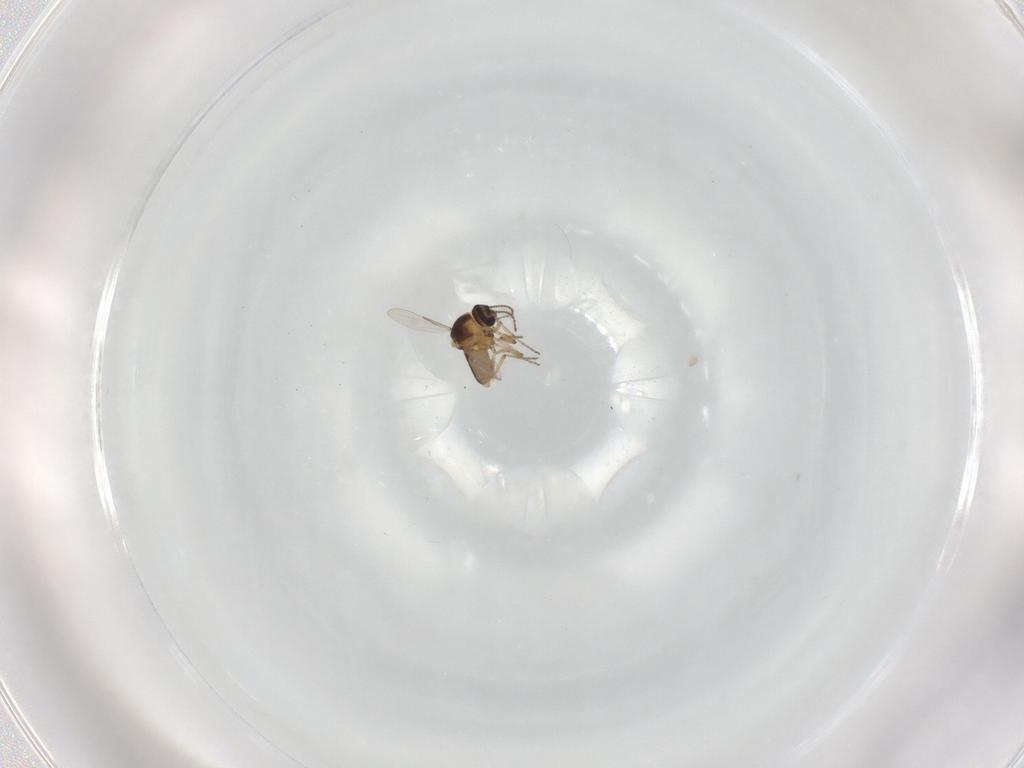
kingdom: Animalia
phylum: Arthropoda
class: Insecta
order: Diptera
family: Ceratopogonidae
